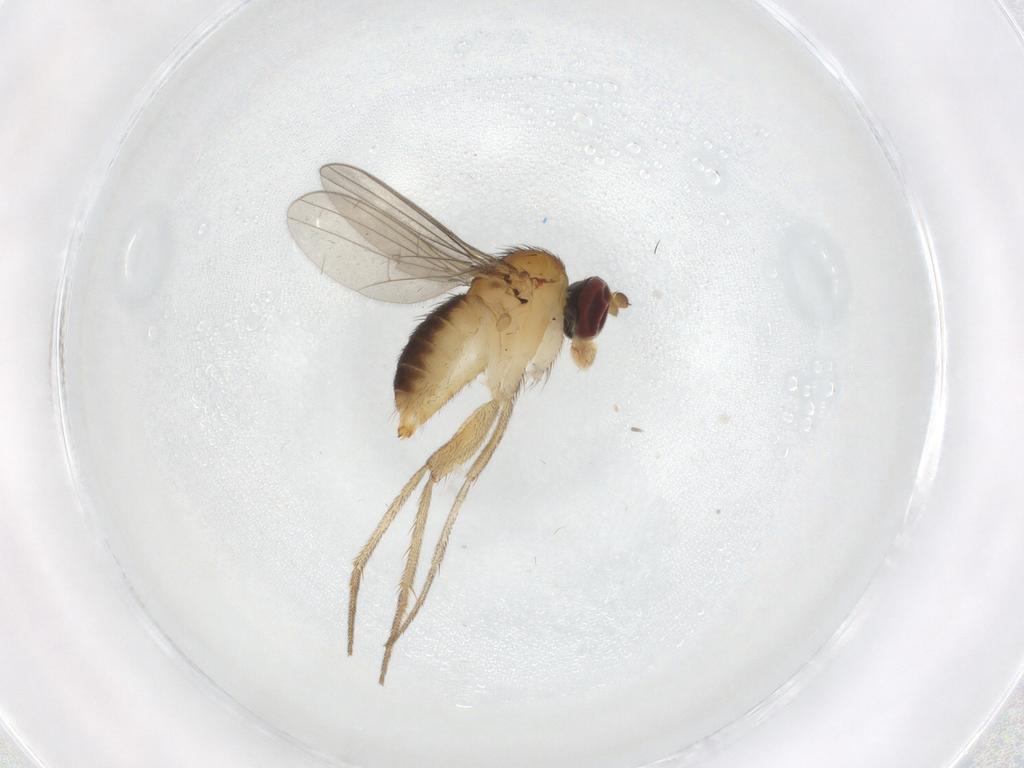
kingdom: Animalia
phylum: Arthropoda
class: Insecta
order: Diptera
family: Dolichopodidae
